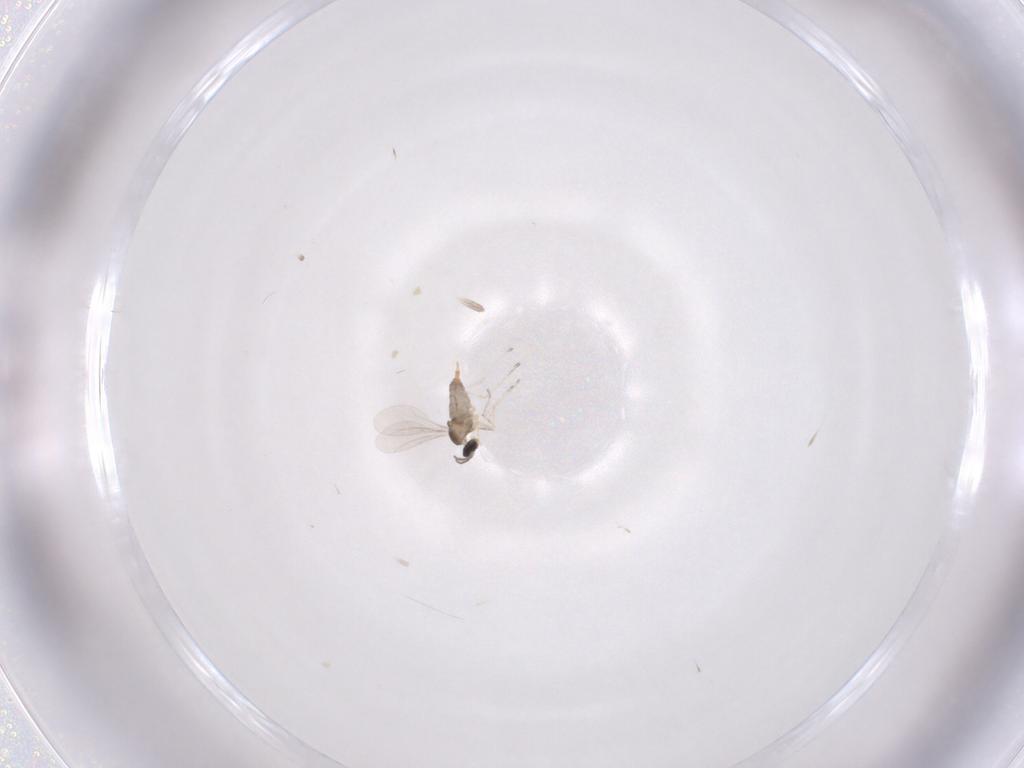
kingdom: Animalia
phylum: Arthropoda
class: Insecta
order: Diptera
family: Cecidomyiidae
